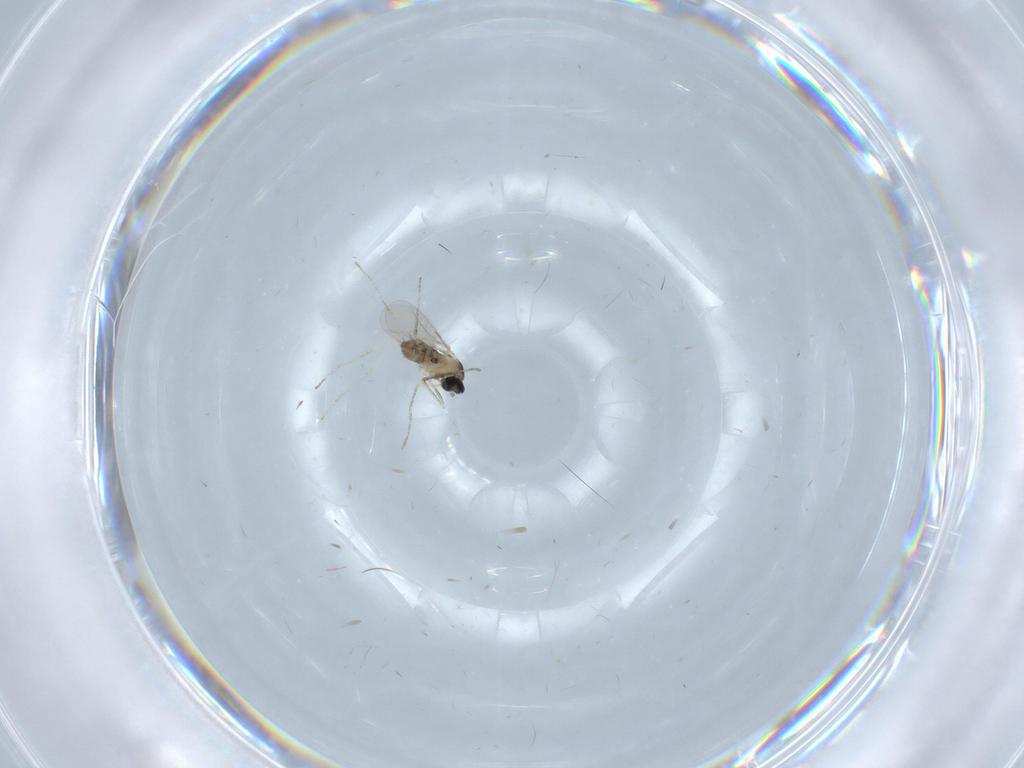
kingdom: Animalia
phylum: Arthropoda
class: Insecta
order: Diptera
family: Cecidomyiidae
